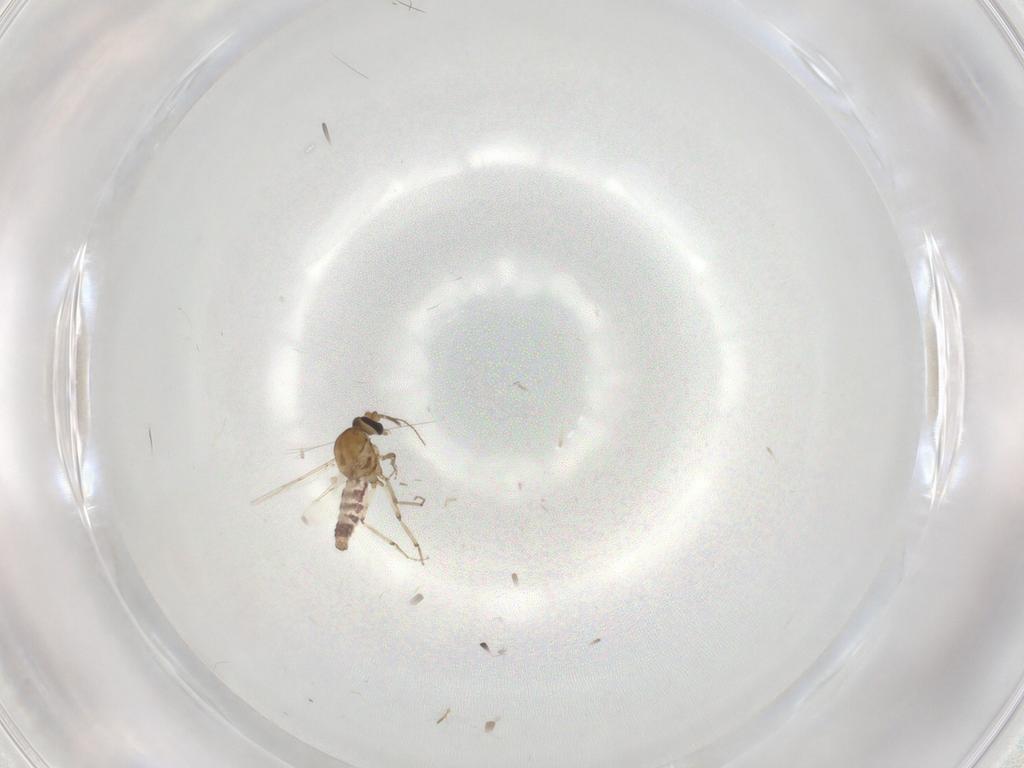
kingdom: Animalia
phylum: Arthropoda
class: Insecta
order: Diptera
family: Ceratopogonidae
